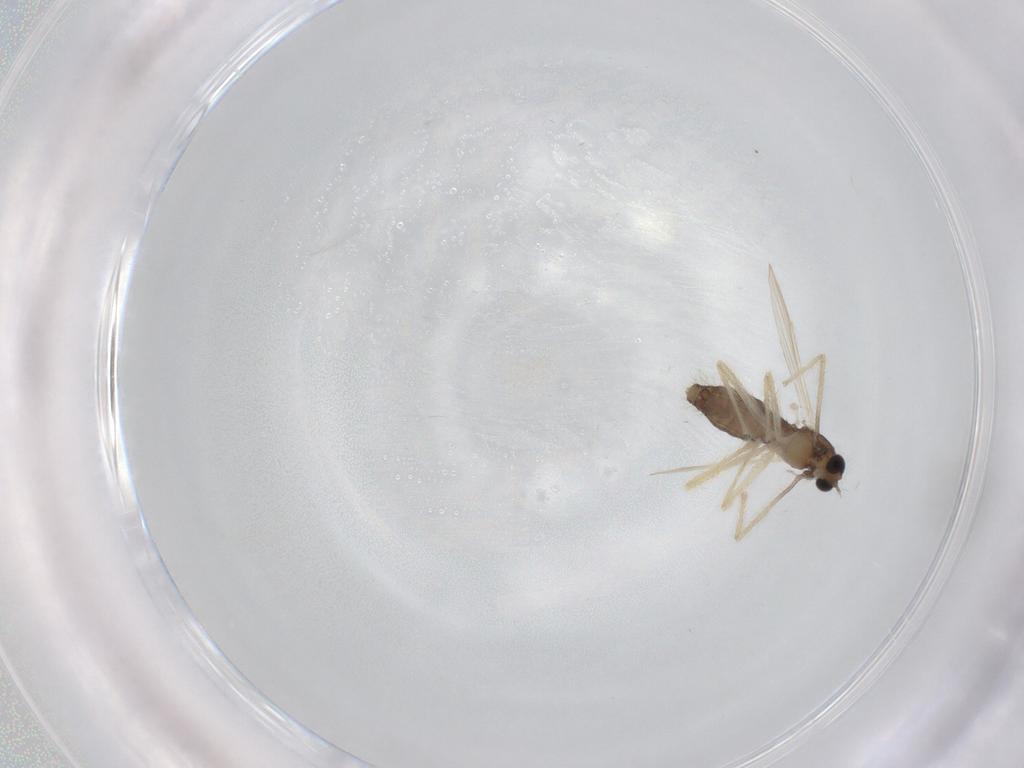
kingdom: Animalia
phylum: Arthropoda
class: Insecta
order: Diptera
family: Chironomidae
